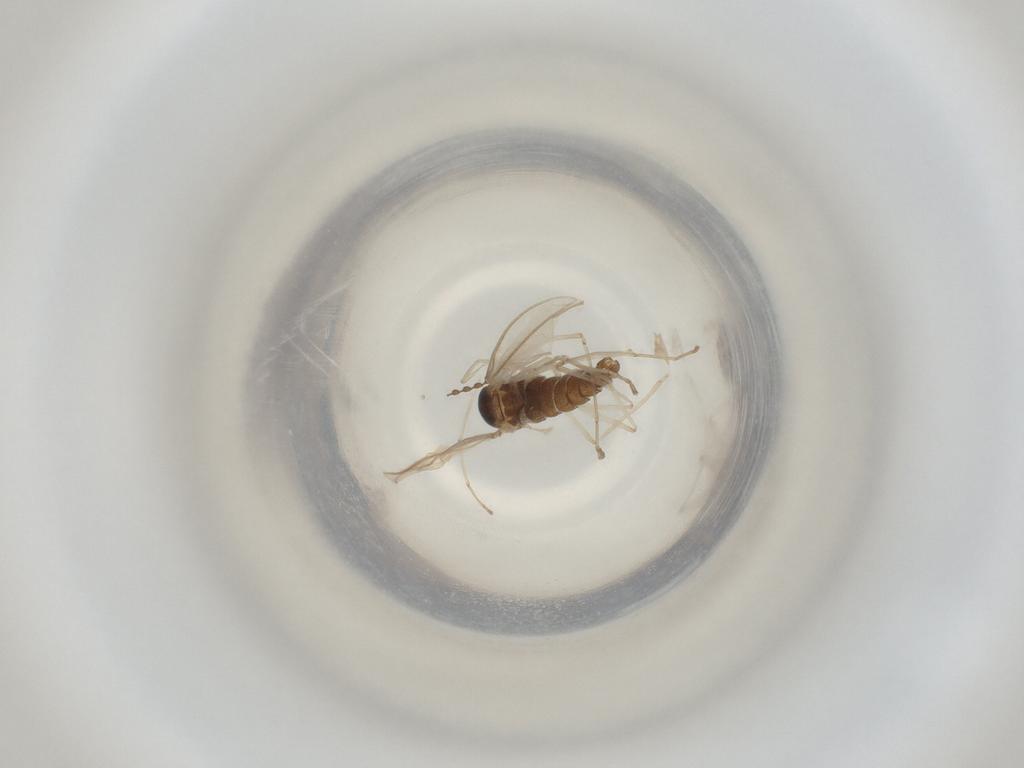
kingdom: Animalia
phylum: Arthropoda
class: Insecta
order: Diptera
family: Cecidomyiidae
